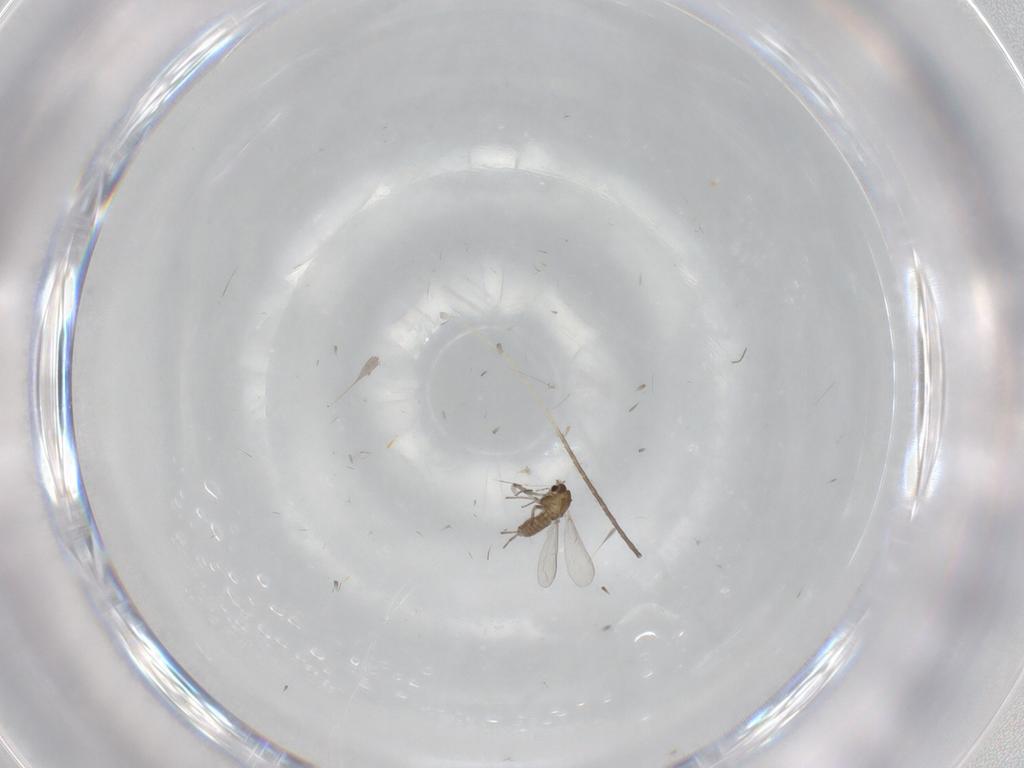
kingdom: Animalia
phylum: Arthropoda
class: Insecta
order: Diptera
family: Chironomidae
